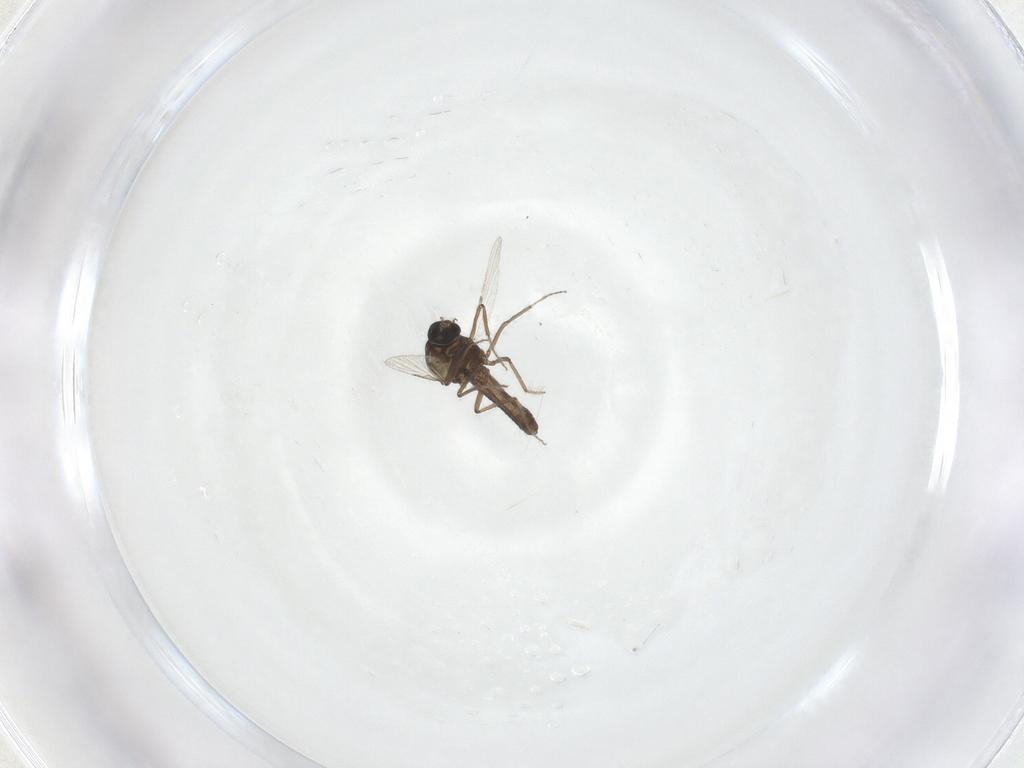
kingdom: Animalia
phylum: Arthropoda
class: Insecta
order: Diptera
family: Ceratopogonidae
